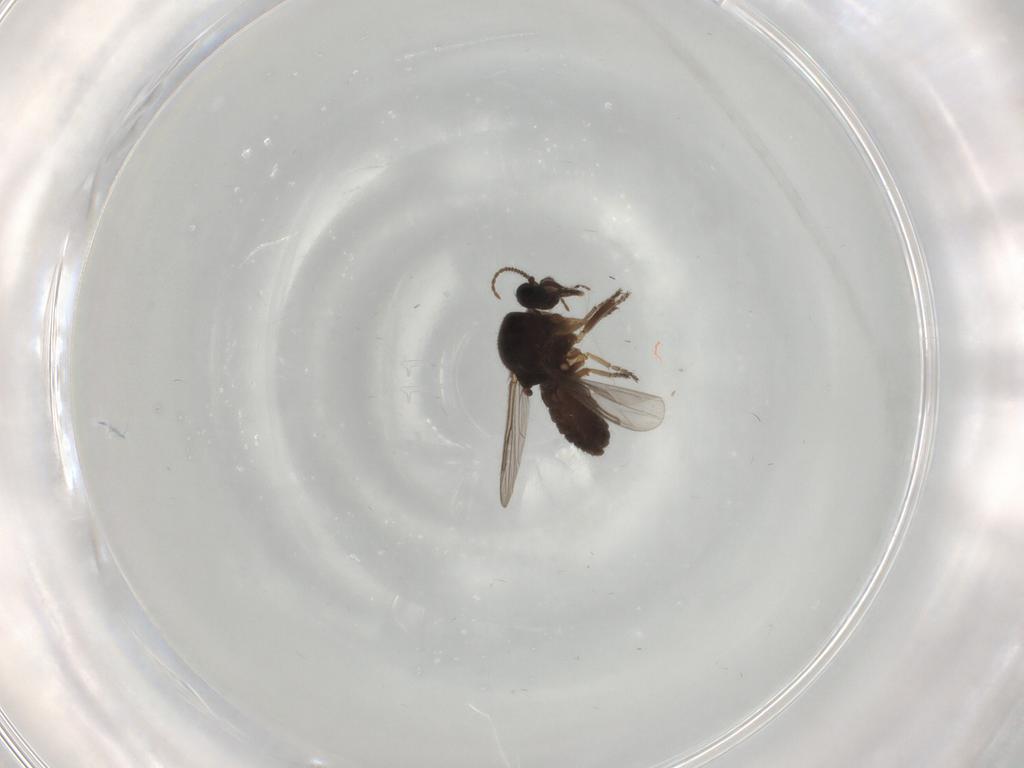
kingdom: Animalia
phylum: Arthropoda
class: Insecta
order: Diptera
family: Ceratopogonidae
